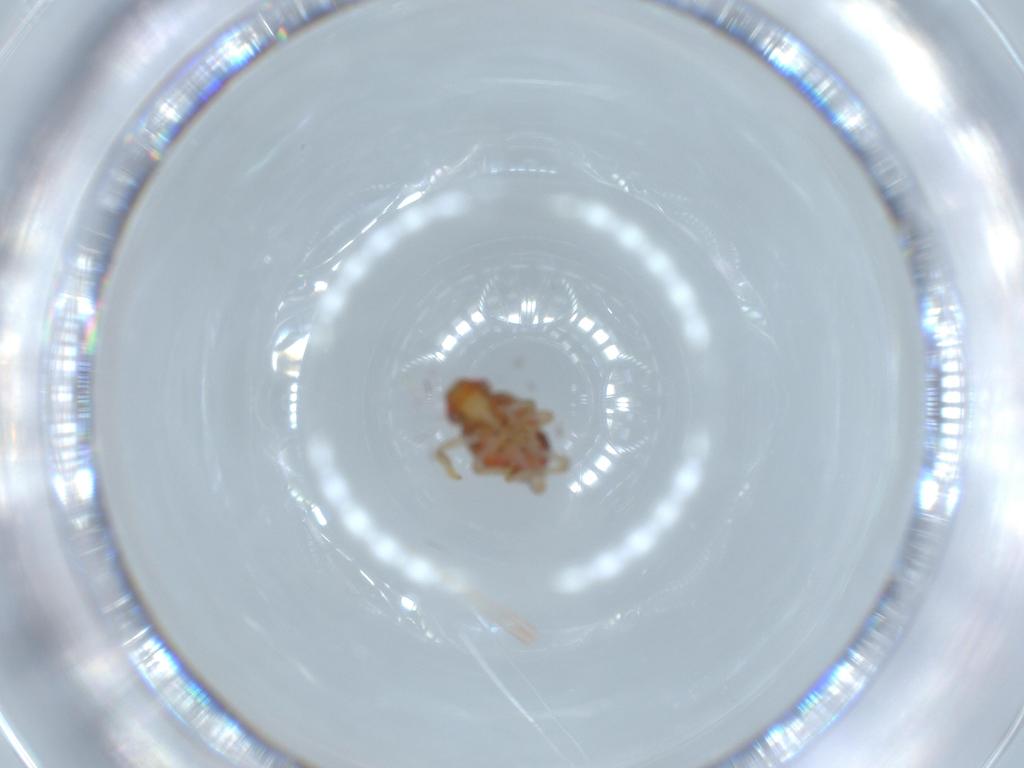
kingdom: Animalia
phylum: Arthropoda
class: Insecta
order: Hemiptera
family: Issidae
